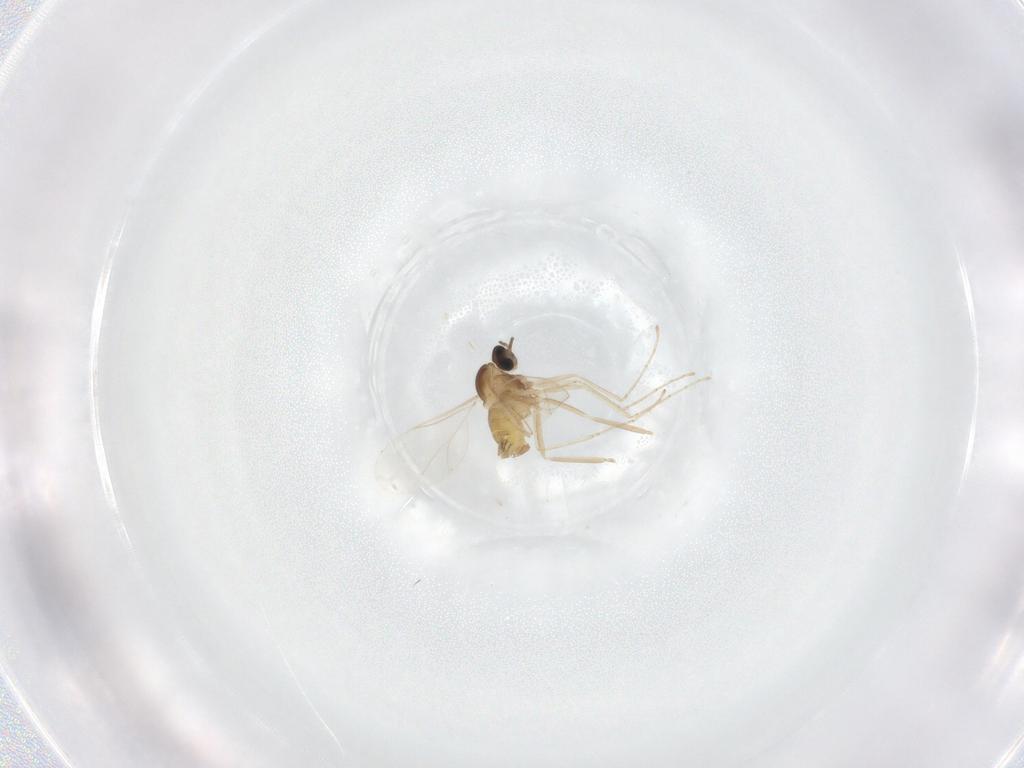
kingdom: Animalia
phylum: Arthropoda
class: Insecta
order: Diptera
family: Cecidomyiidae
